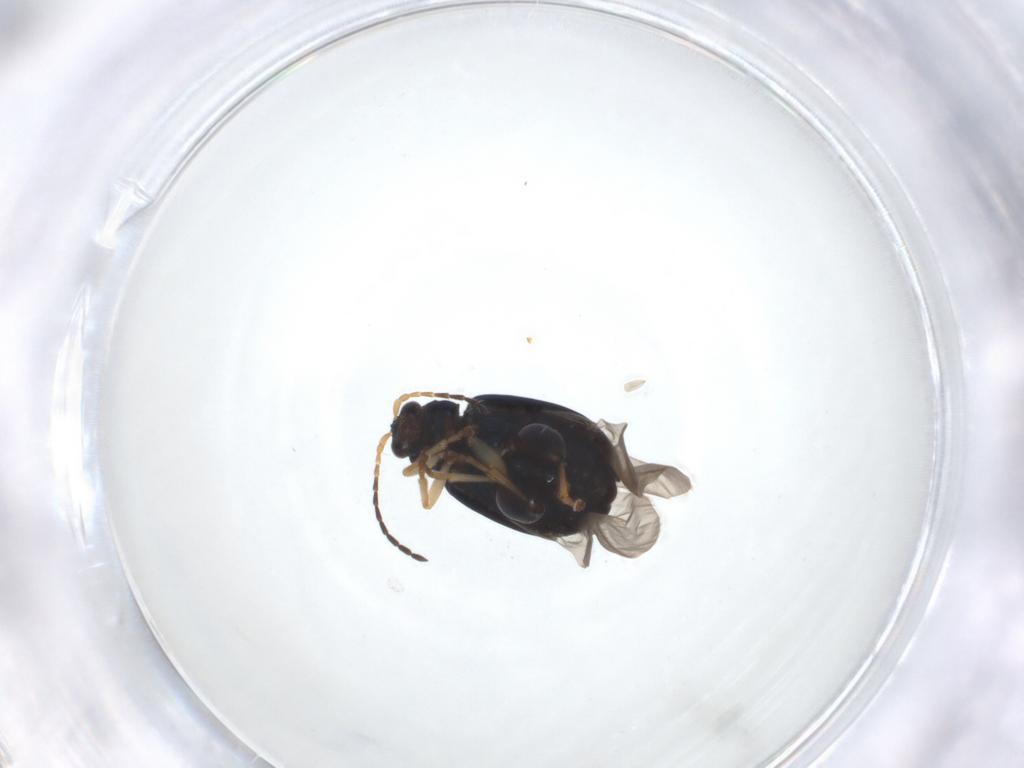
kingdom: Animalia
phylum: Arthropoda
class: Insecta
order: Coleoptera
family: Chrysomelidae
